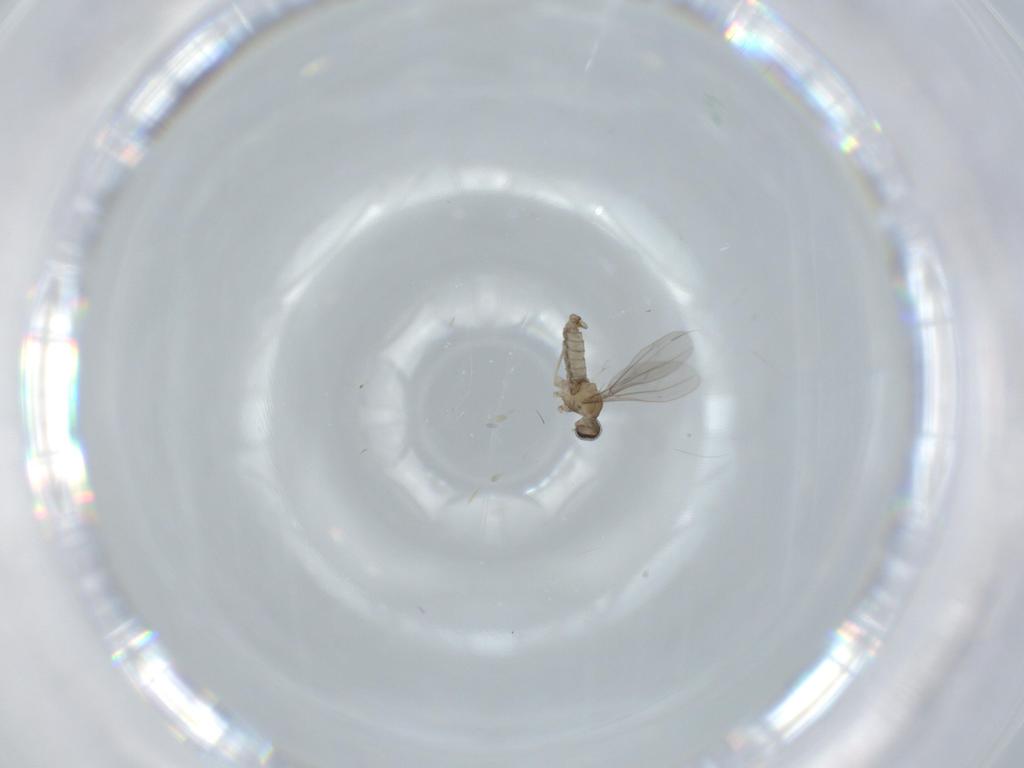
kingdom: Animalia
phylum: Arthropoda
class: Insecta
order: Diptera
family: Cecidomyiidae
